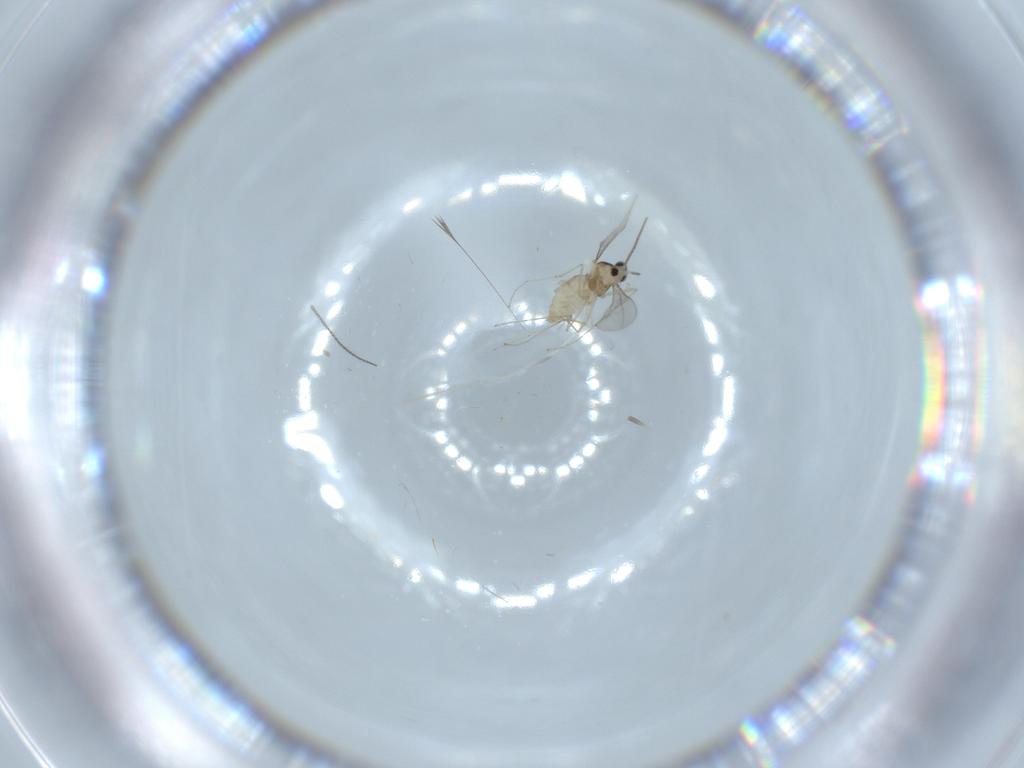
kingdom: Animalia
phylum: Arthropoda
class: Insecta
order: Diptera
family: Cecidomyiidae
